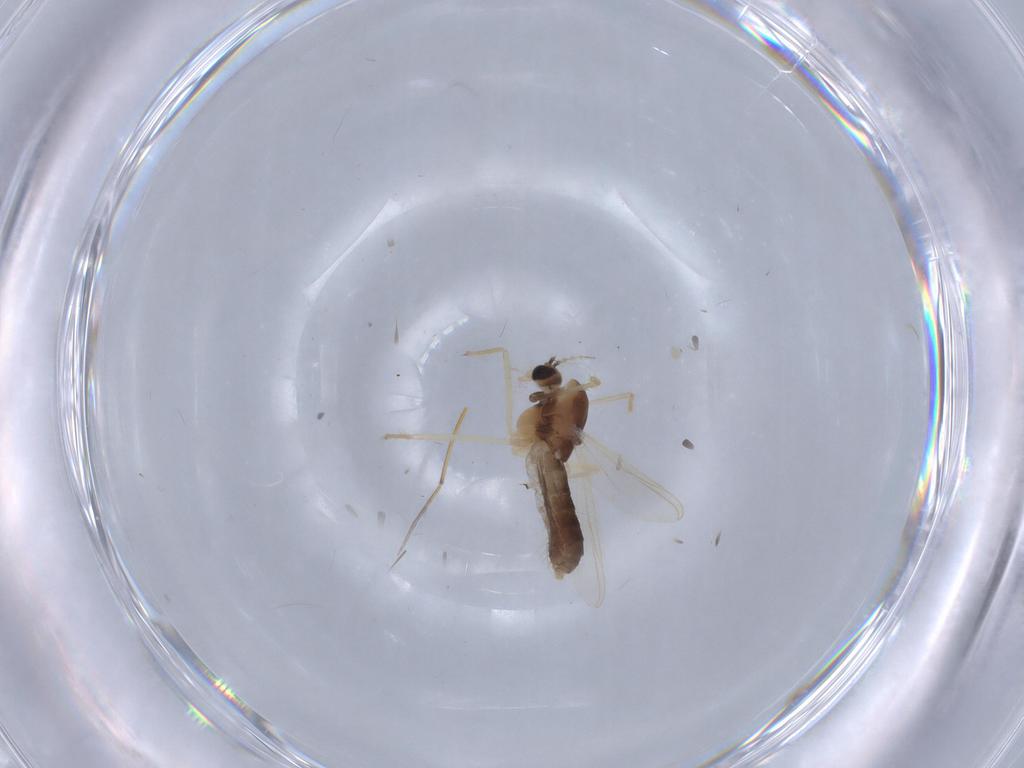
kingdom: Animalia
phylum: Arthropoda
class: Insecta
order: Diptera
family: Chironomidae
